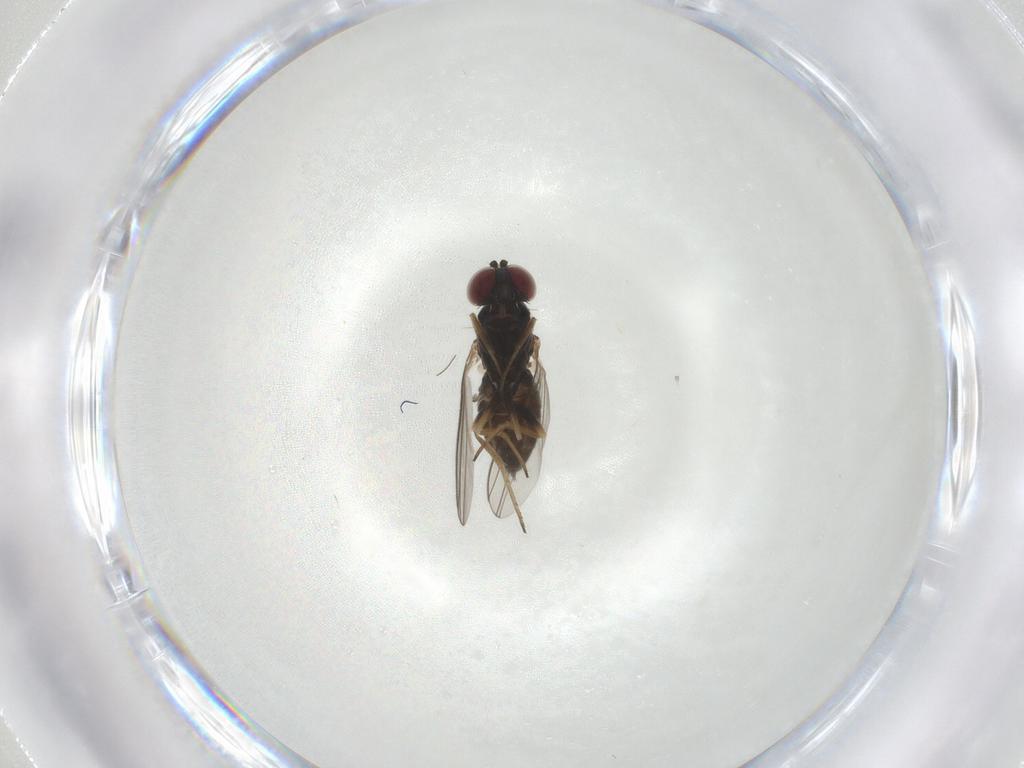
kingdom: Animalia
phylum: Arthropoda
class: Insecta
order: Diptera
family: Dolichopodidae
